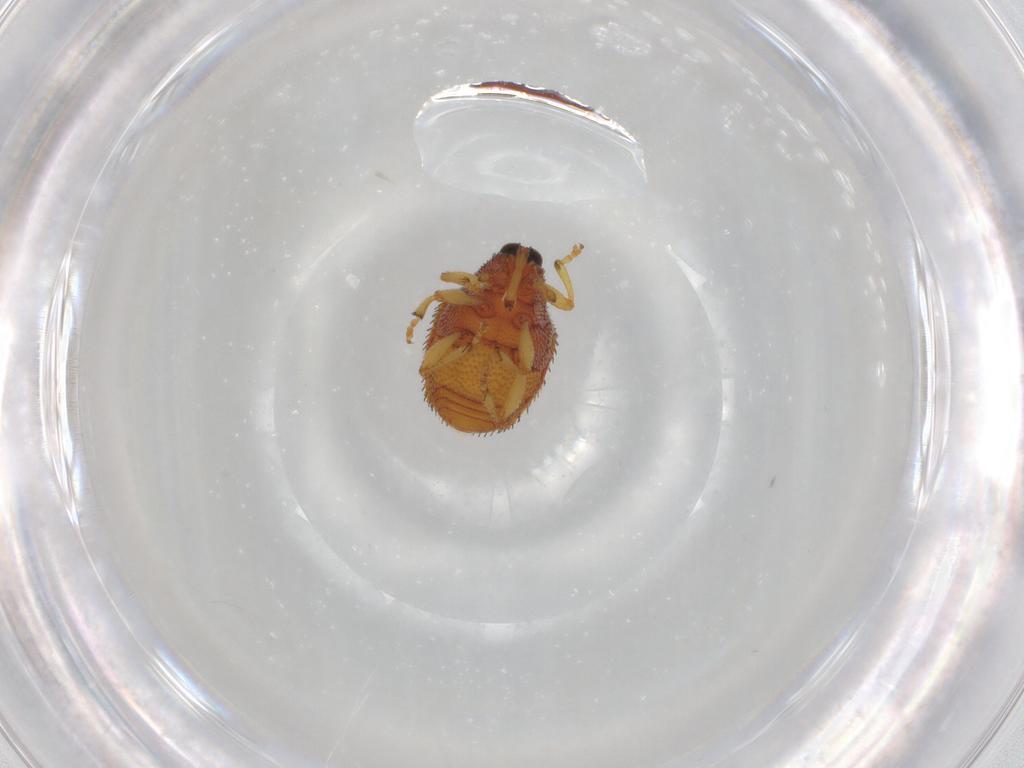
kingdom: Animalia
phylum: Arthropoda
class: Insecta
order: Coleoptera
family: Curculionidae
